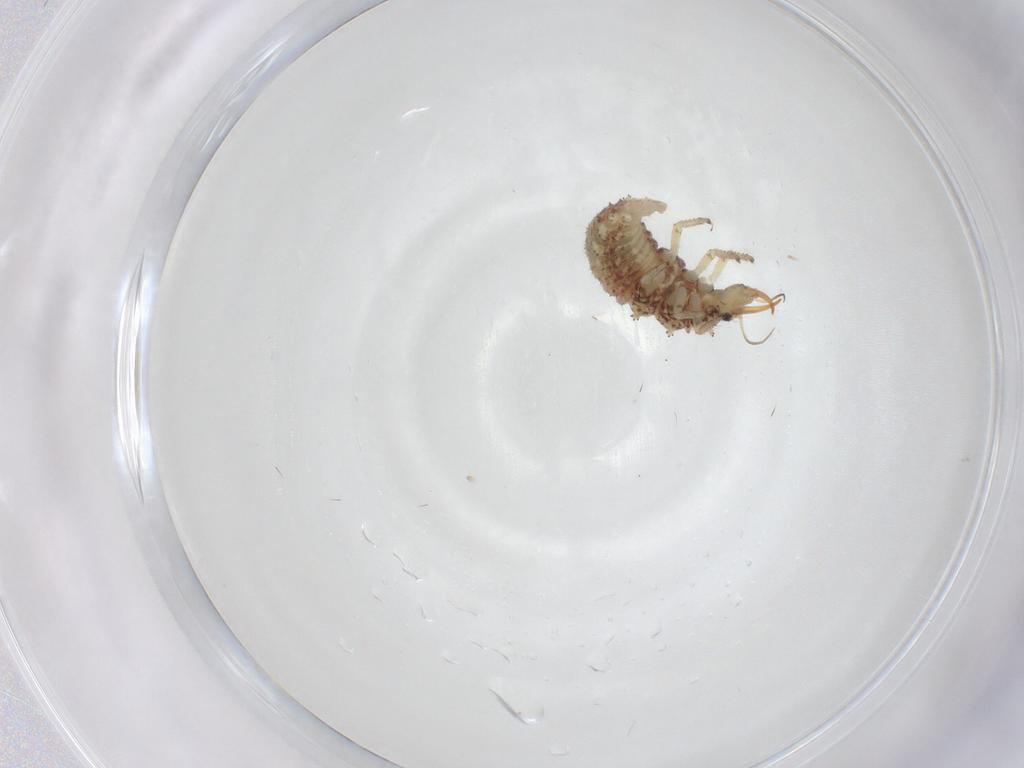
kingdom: Animalia
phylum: Arthropoda
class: Insecta
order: Neuroptera
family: Chrysopidae
